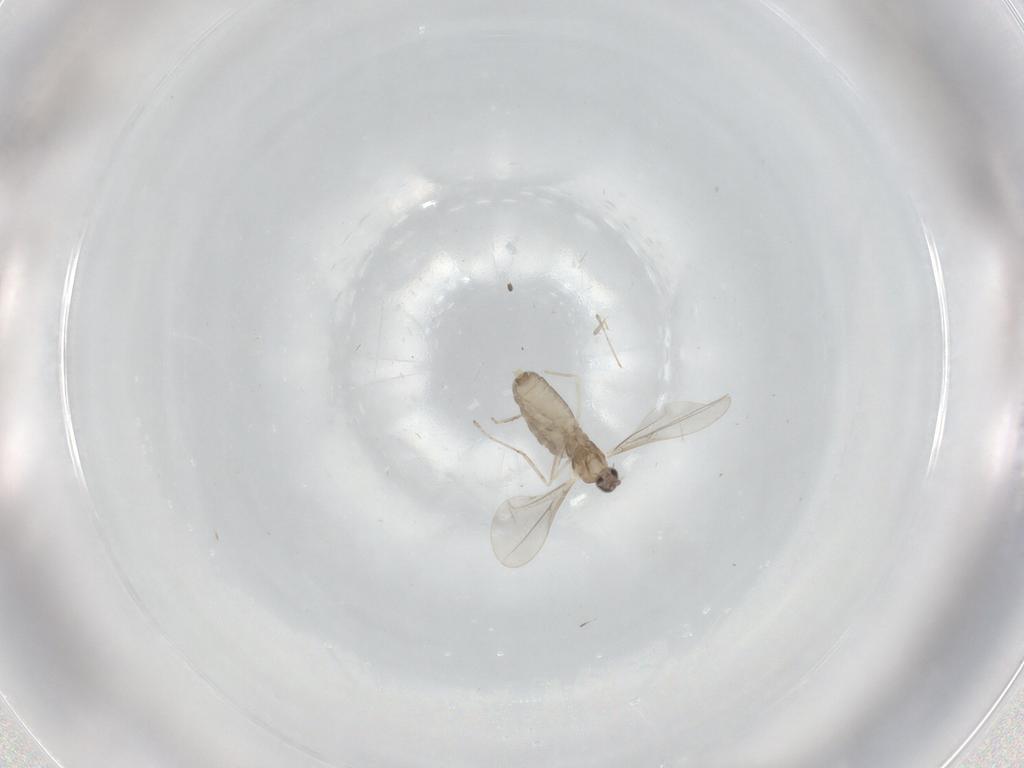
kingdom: Animalia
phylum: Arthropoda
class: Insecta
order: Diptera
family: Cecidomyiidae
